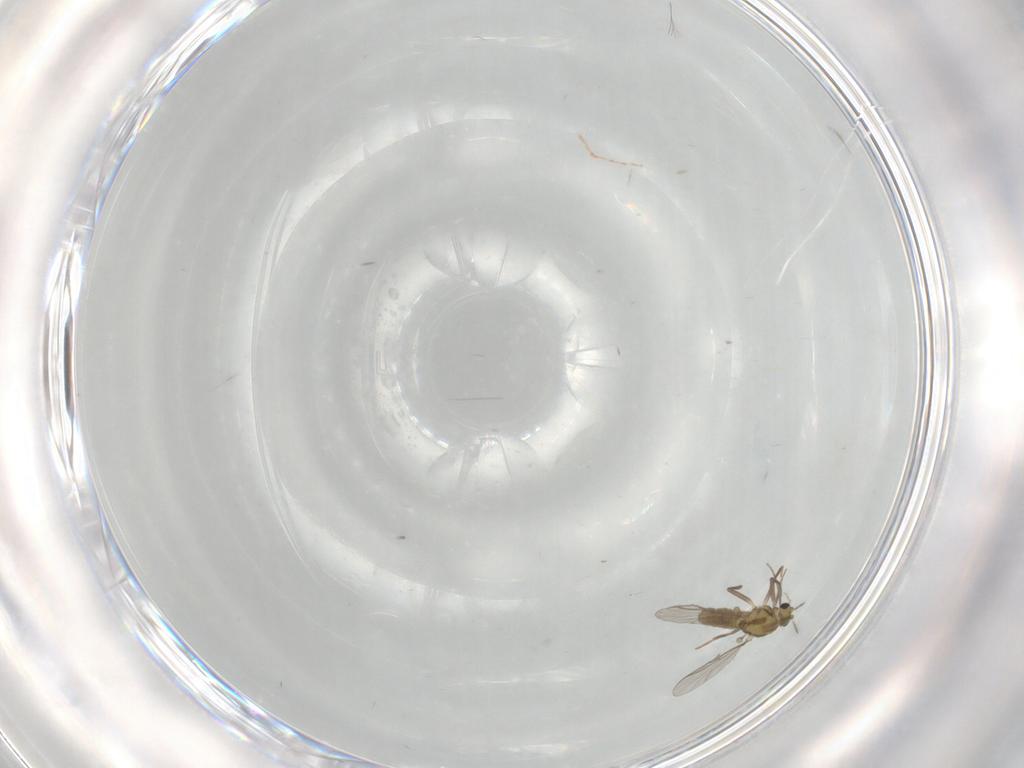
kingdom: Animalia
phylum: Arthropoda
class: Insecta
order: Diptera
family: Chironomidae
